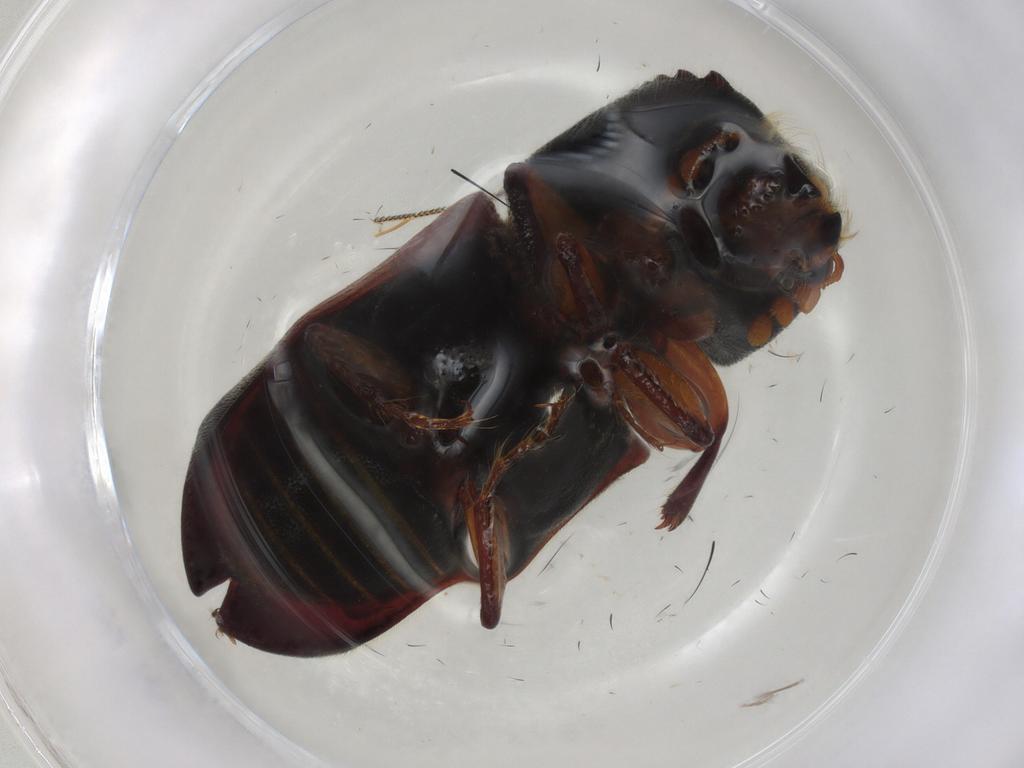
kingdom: Animalia
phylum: Arthropoda
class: Insecta
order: Coleoptera
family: Bostrichidae
